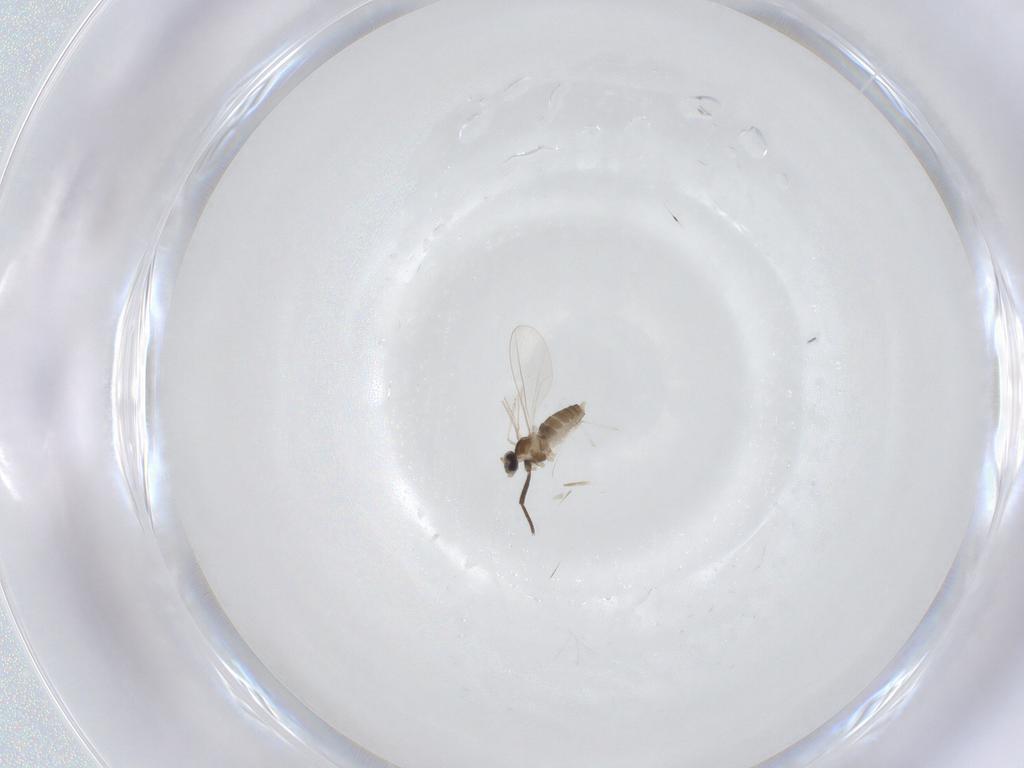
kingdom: Animalia
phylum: Arthropoda
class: Insecta
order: Diptera
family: Cecidomyiidae
